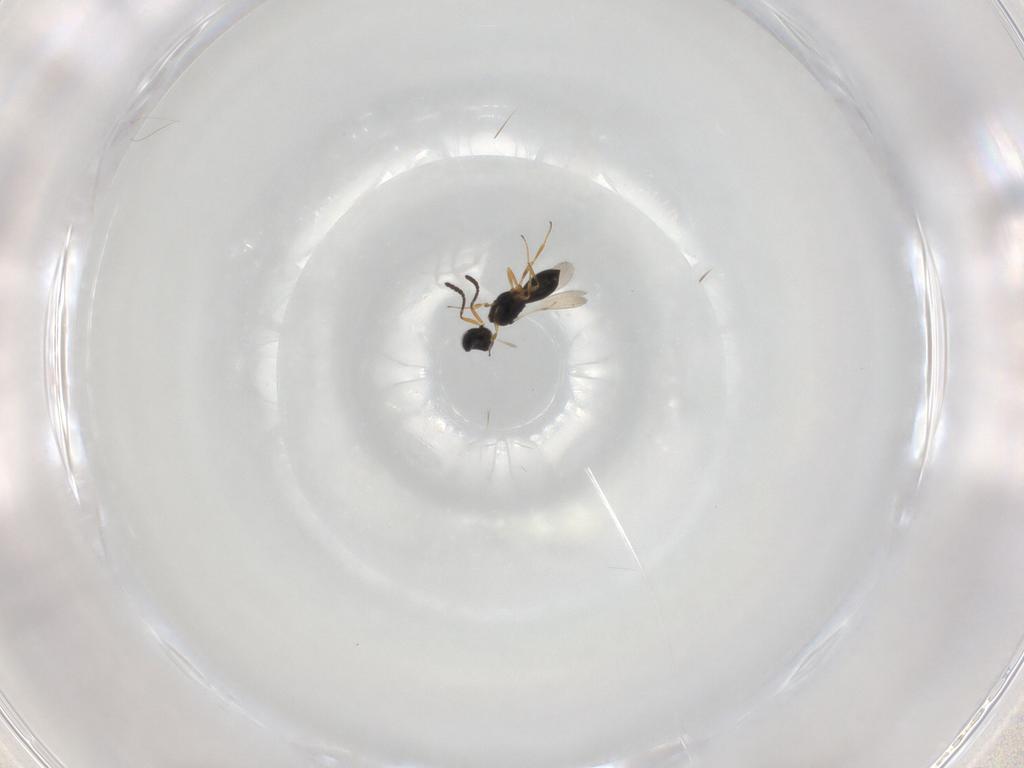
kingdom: Animalia
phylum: Arthropoda
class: Insecta
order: Hymenoptera
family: Scelionidae
